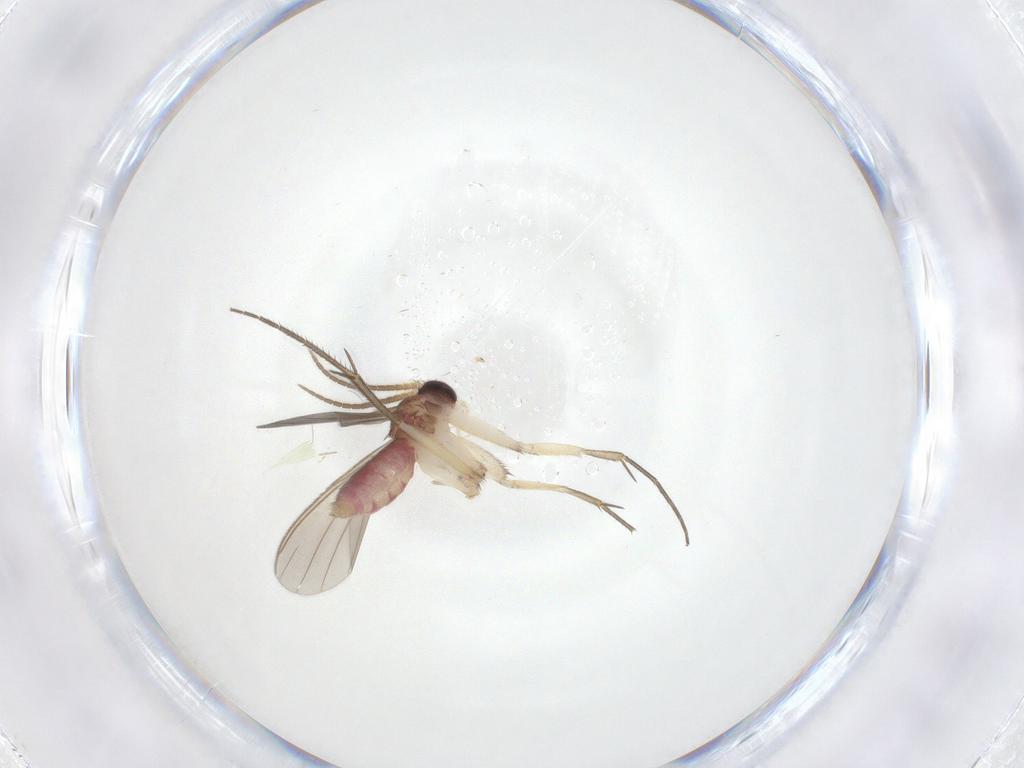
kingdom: Animalia
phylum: Arthropoda
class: Insecta
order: Diptera
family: Mycetophilidae
